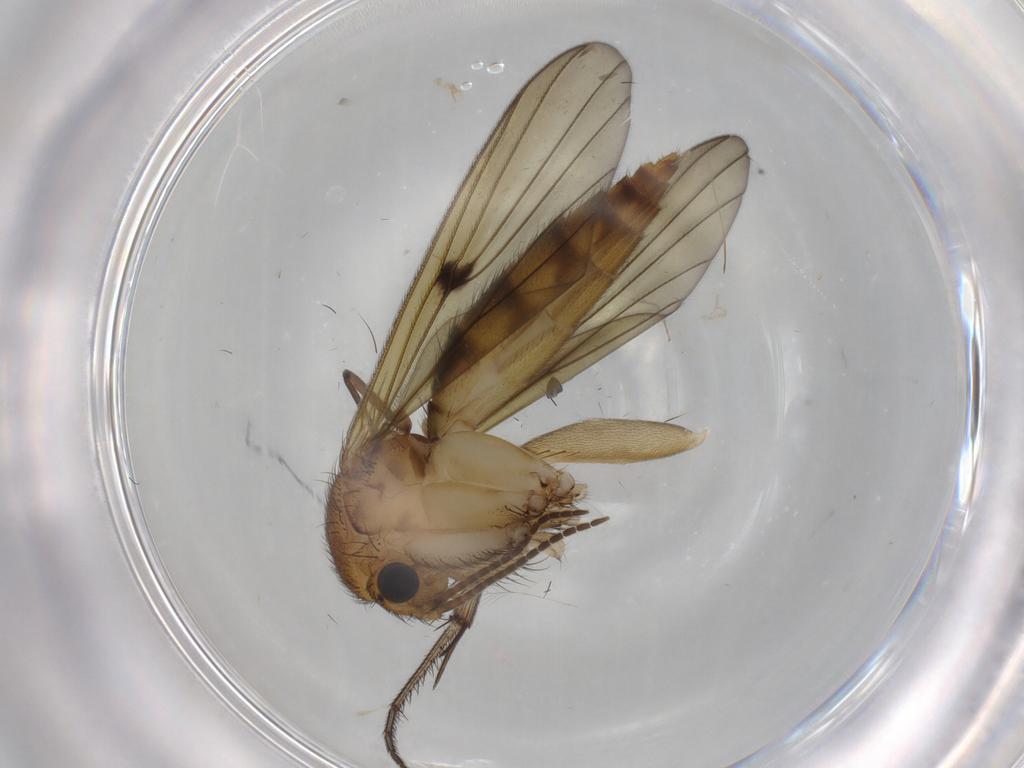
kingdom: Animalia
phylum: Arthropoda
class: Insecta
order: Diptera
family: Mycetophilidae
